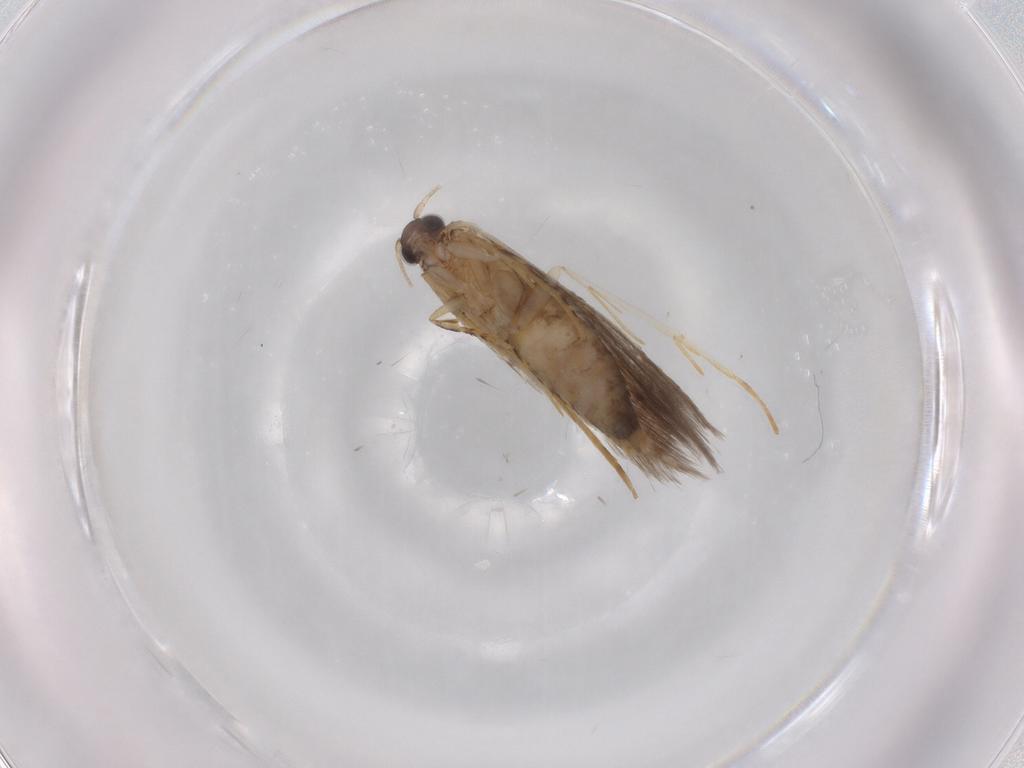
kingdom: Animalia
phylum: Arthropoda
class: Insecta
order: Lepidoptera
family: Tineidae
